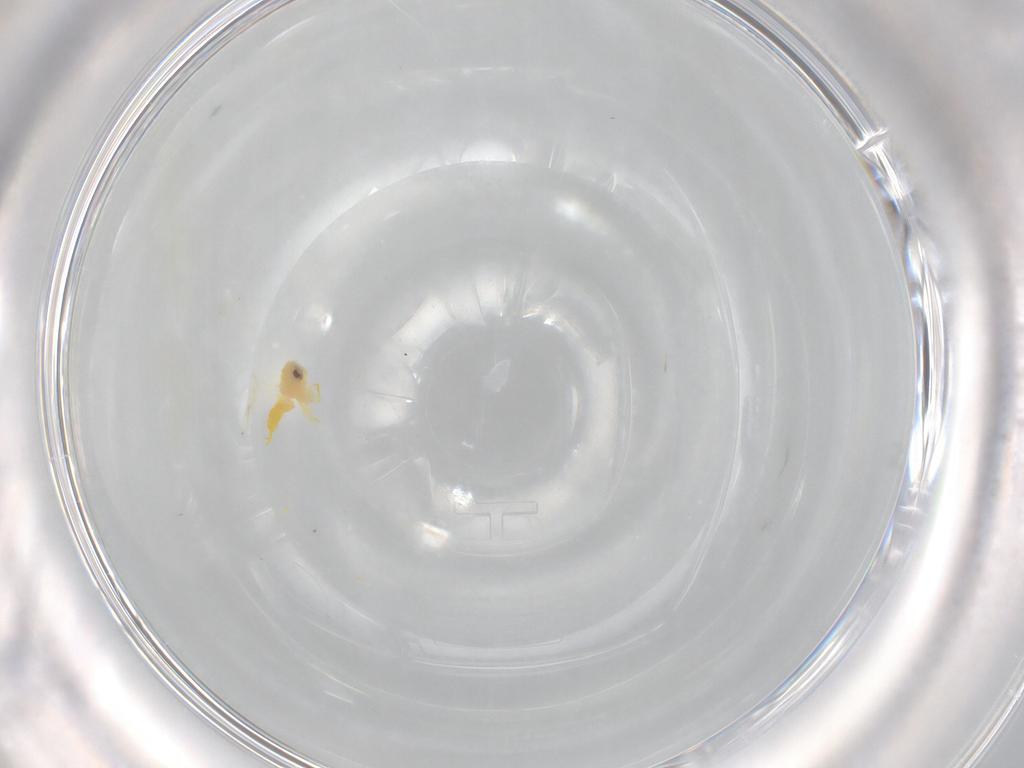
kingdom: Animalia
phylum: Arthropoda
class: Insecta
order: Hemiptera
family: Aleyrodidae
